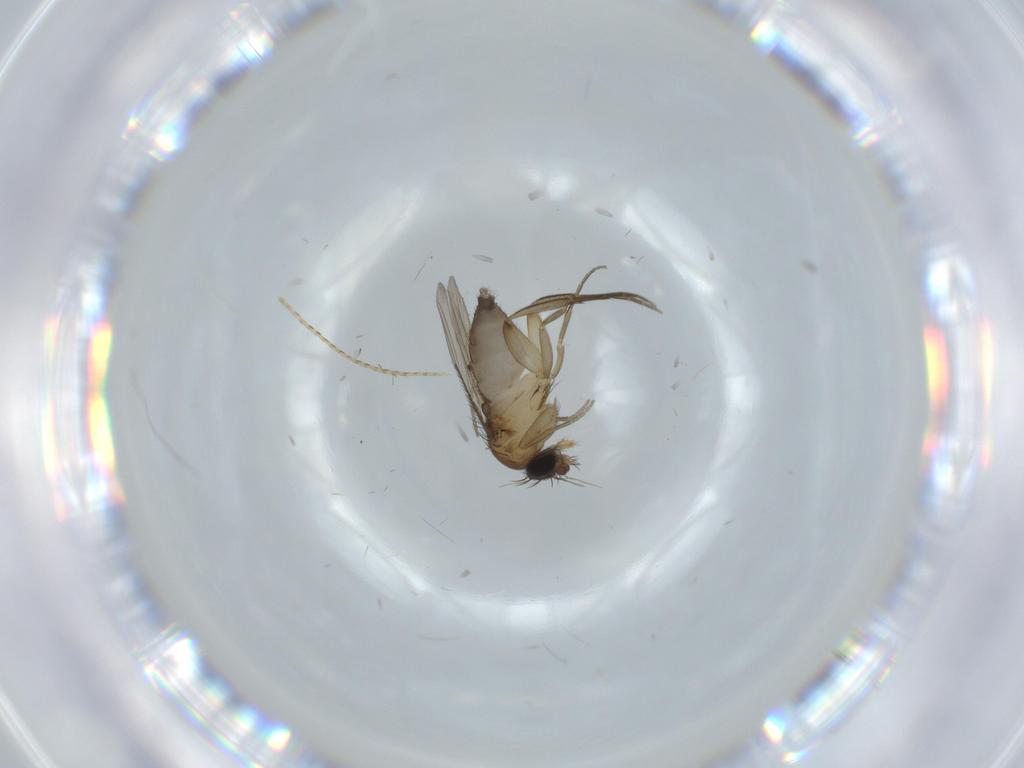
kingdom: Animalia
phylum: Arthropoda
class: Insecta
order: Diptera
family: Phoridae
